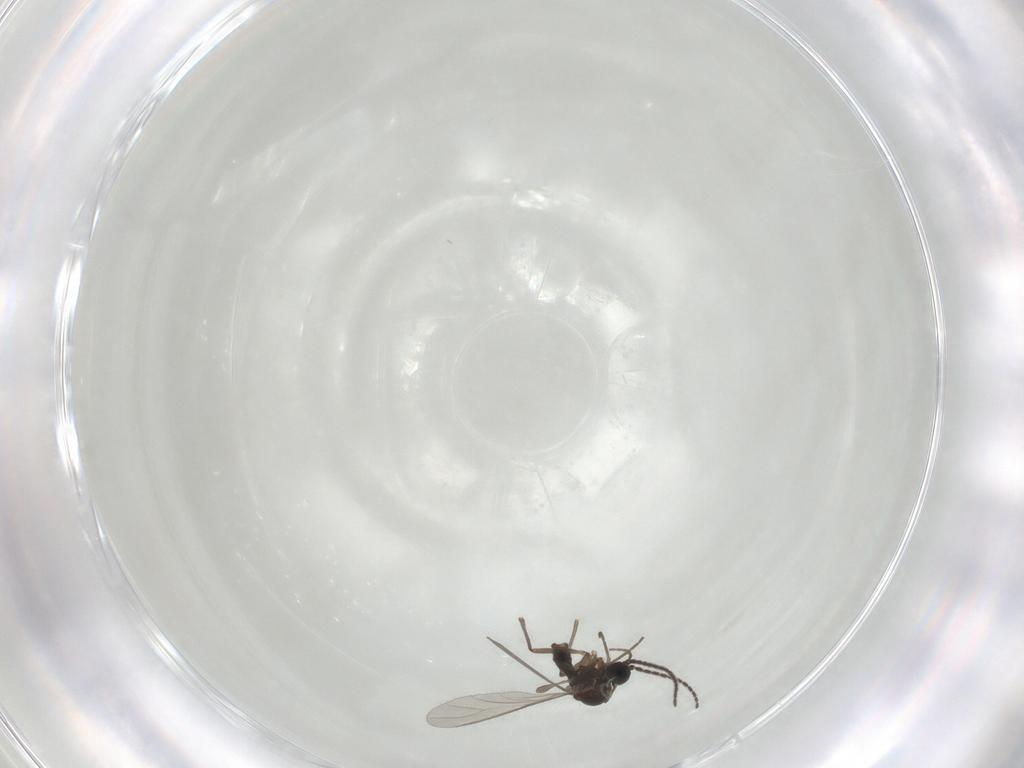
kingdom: Animalia
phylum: Arthropoda
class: Insecta
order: Diptera
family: Sciaridae
